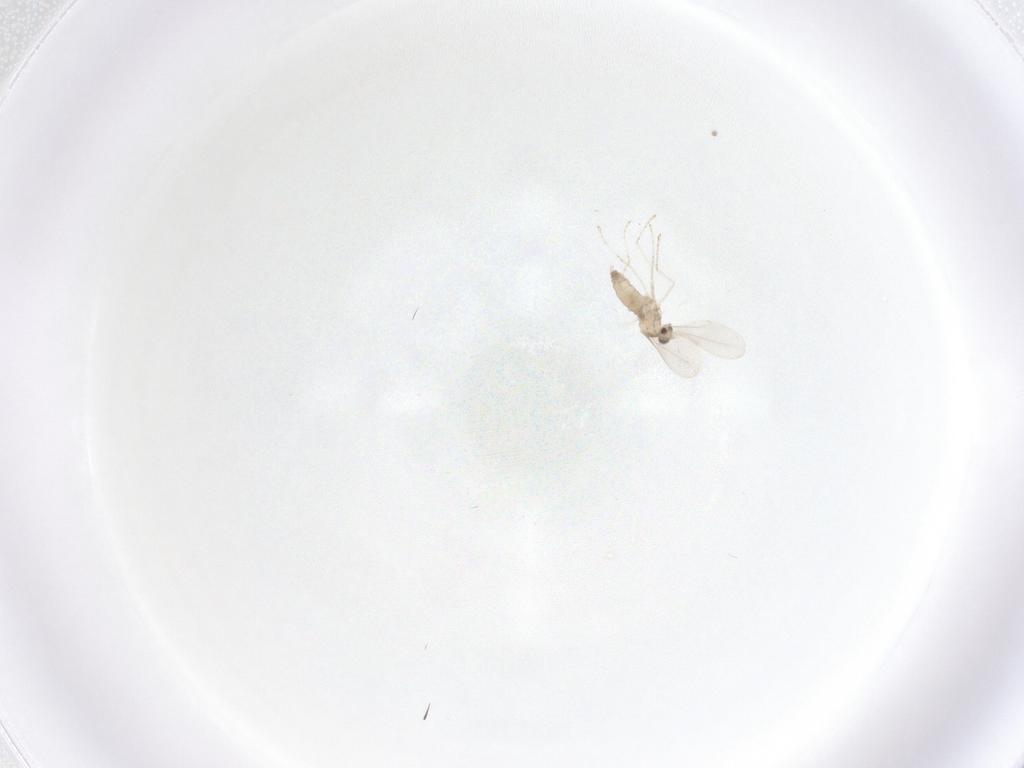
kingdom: Animalia
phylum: Arthropoda
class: Insecta
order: Diptera
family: Cecidomyiidae
